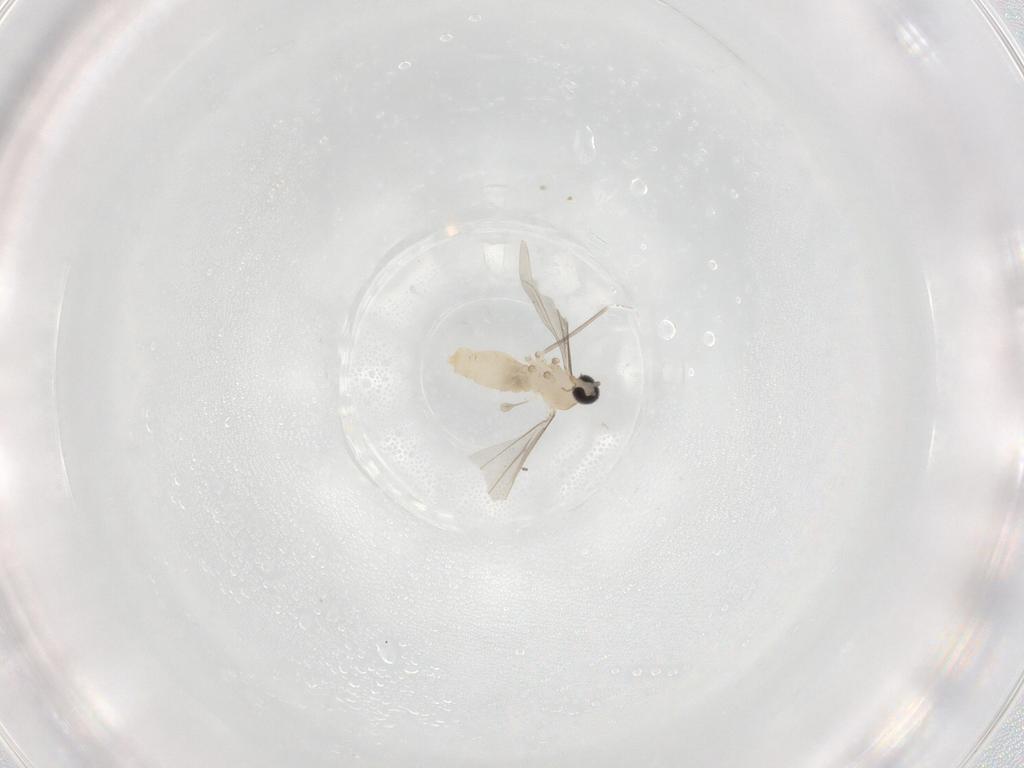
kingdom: Animalia
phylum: Arthropoda
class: Insecta
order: Diptera
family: Cecidomyiidae
